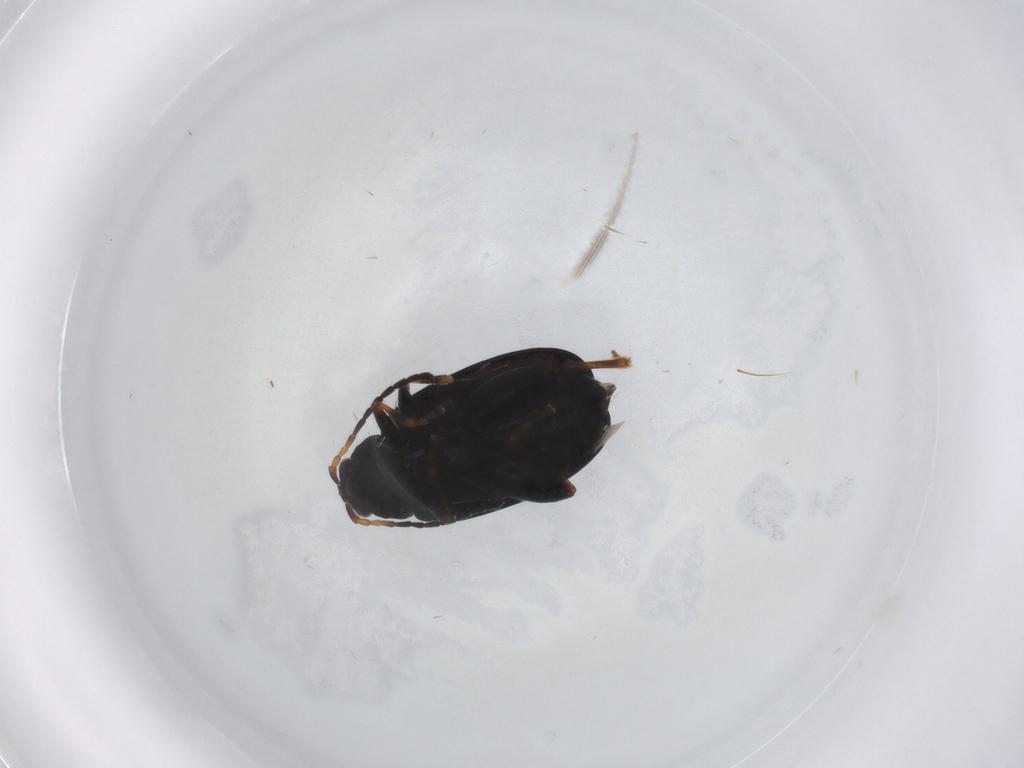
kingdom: Animalia
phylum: Arthropoda
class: Insecta
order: Coleoptera
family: Chrysomelidae
